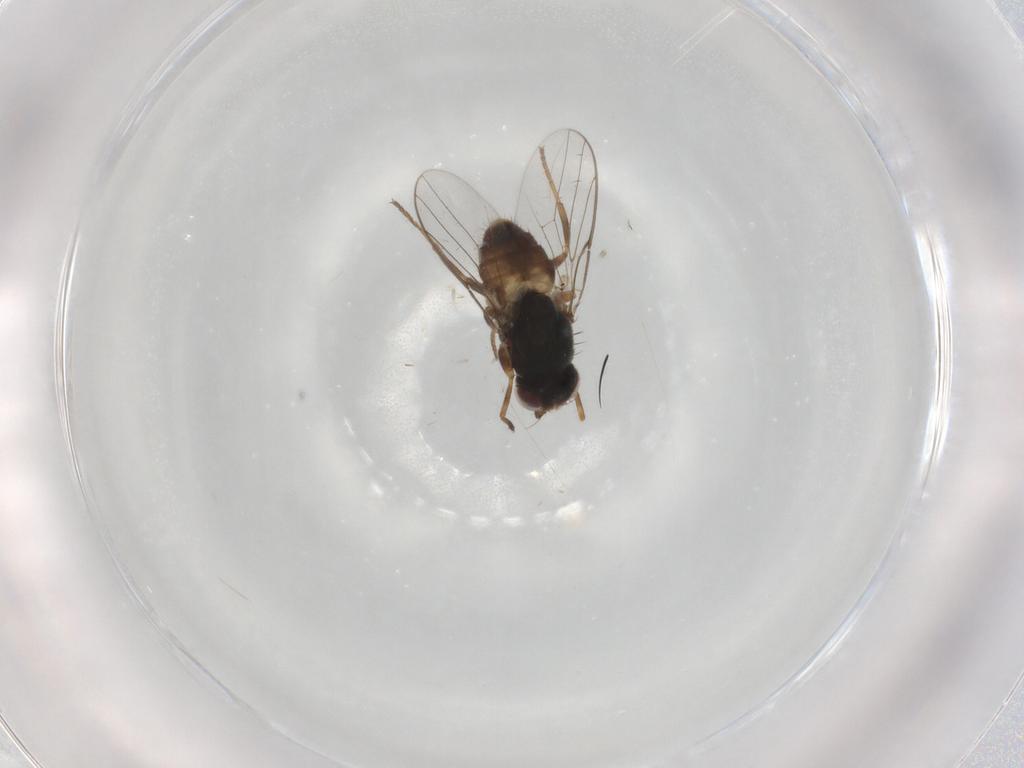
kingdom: Animalia
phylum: Arthropoda
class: Insecta
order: Diptera
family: Chloropidae
